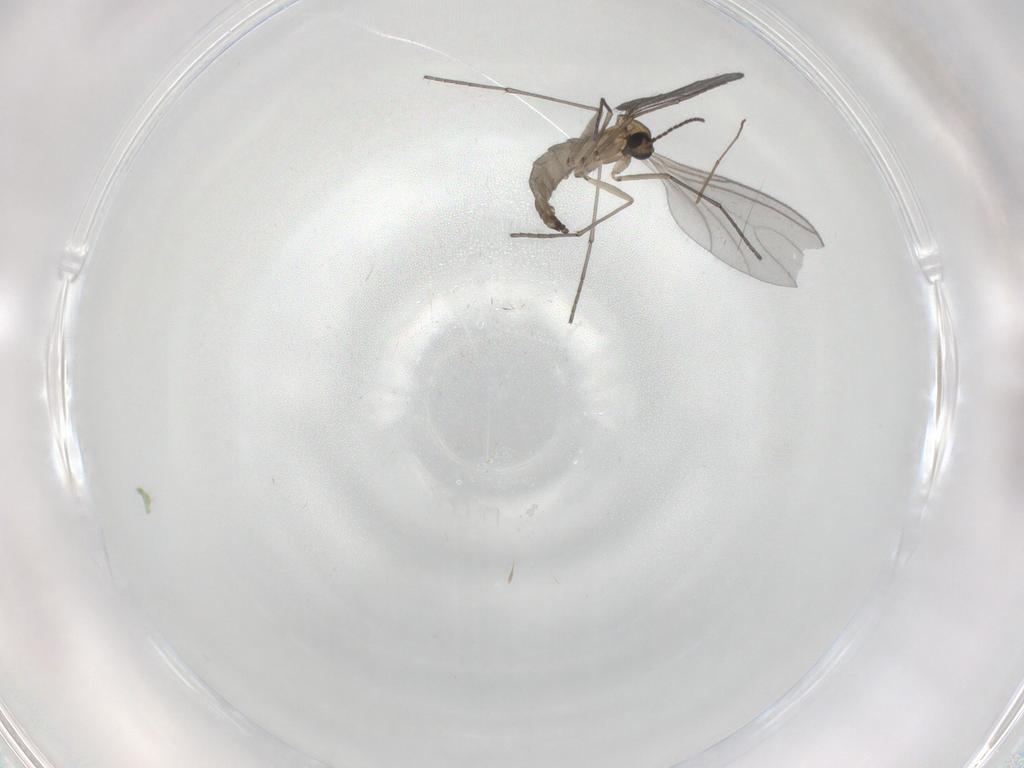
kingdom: Animalia
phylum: Arthropoda
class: Insecta
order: Diptera
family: Sciaridae
